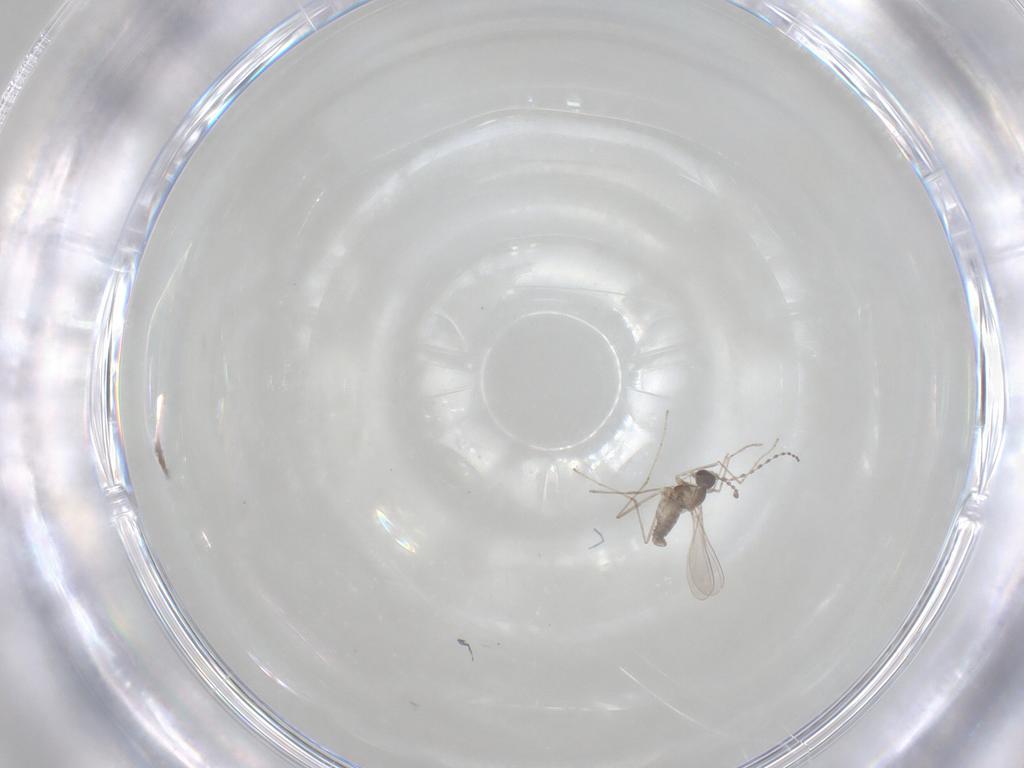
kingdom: Animalia
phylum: Arthropoda
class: Insecta
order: Diptera
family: Cecidomyiidae
